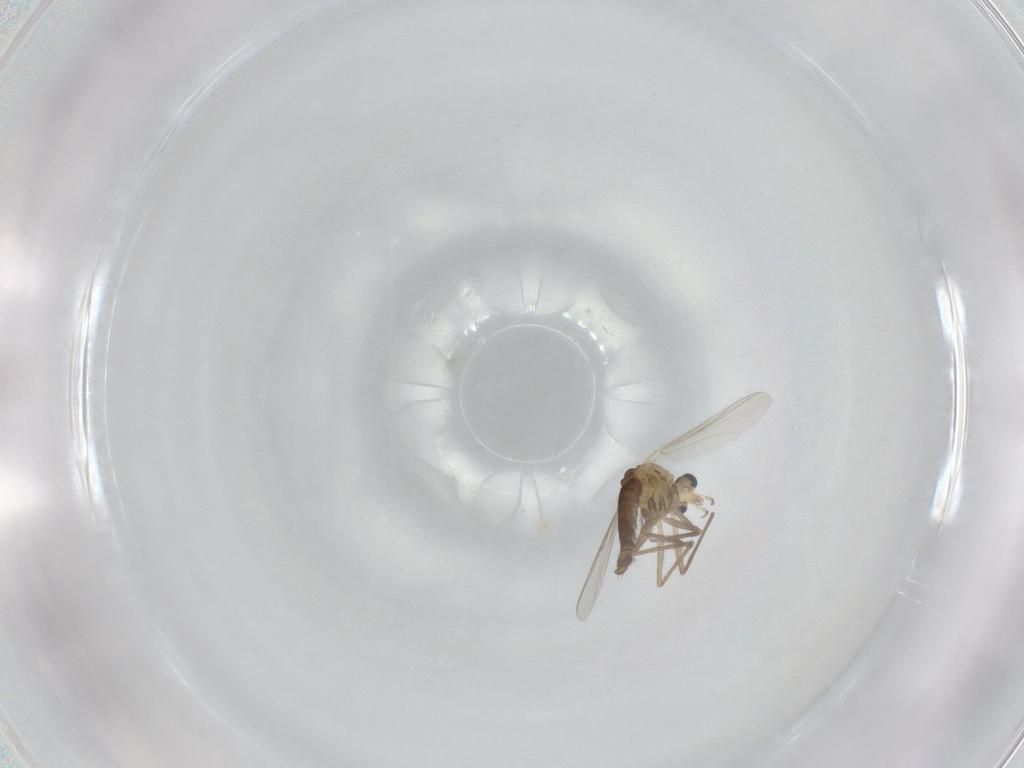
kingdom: Animalia
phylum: Arthropoda
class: Insecta
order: Diptera
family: Chironomidae
